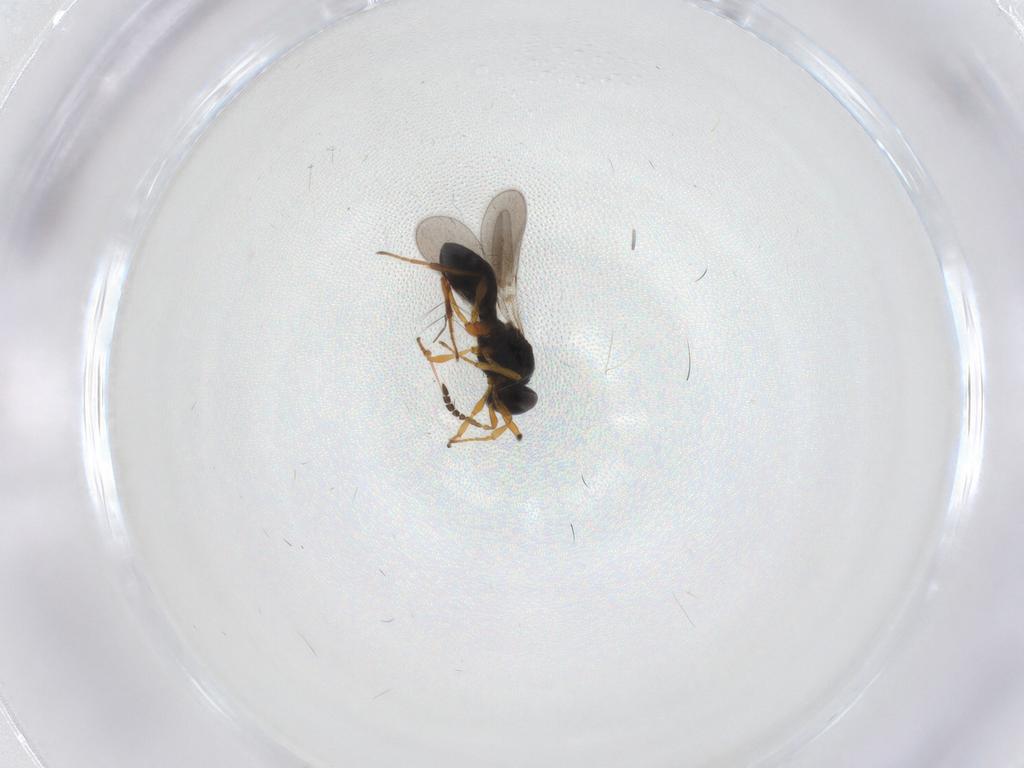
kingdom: Animalia
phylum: Arthropoda
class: Insecta
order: Hymenoptera
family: Platygastridae
